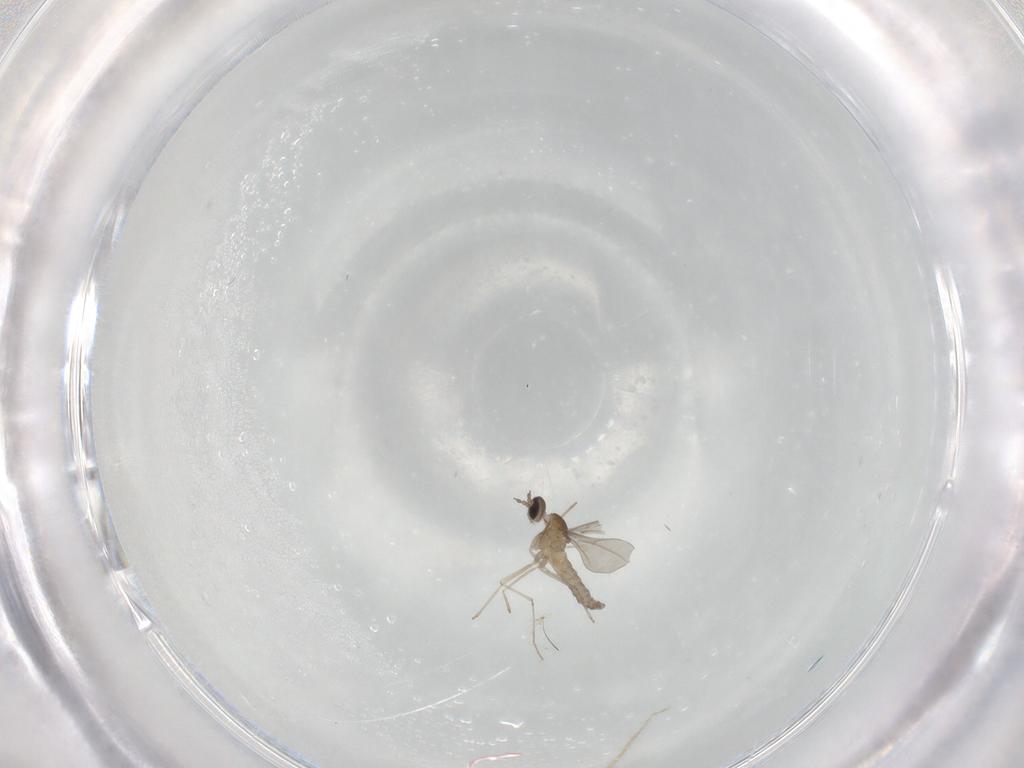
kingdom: Animalia
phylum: Arthropoda
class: Insecta
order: Diptera
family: Cecidomyiidae
